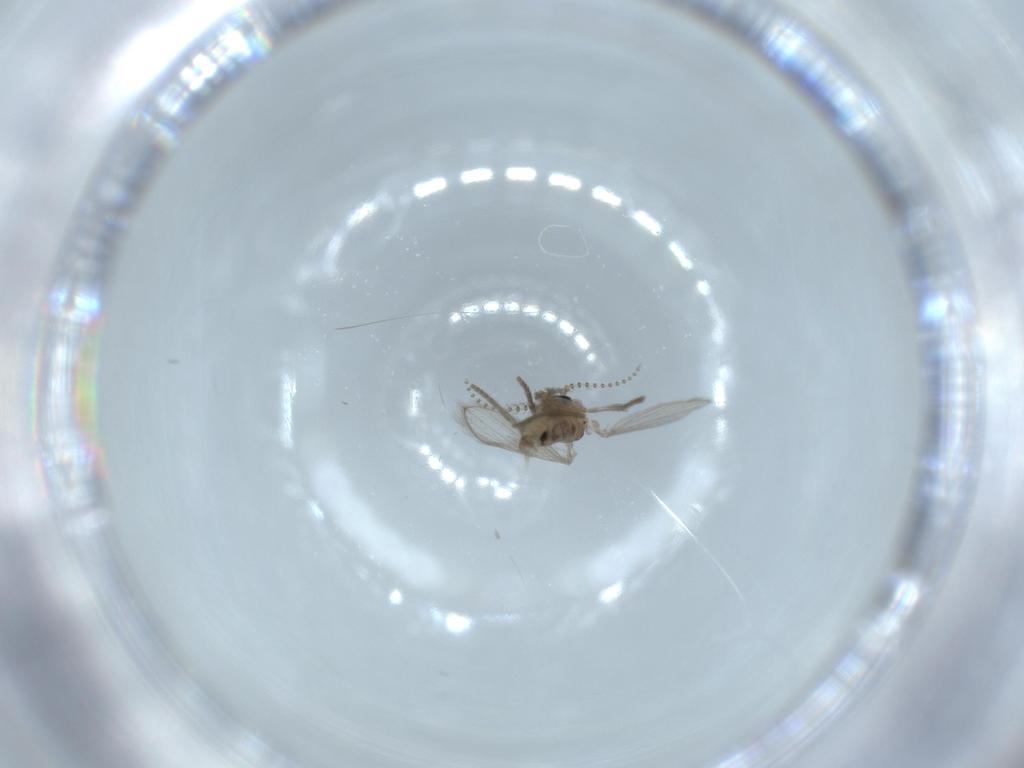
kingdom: Animalia
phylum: Arthropoda
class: Insecta
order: Diptera
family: Psychodidae
